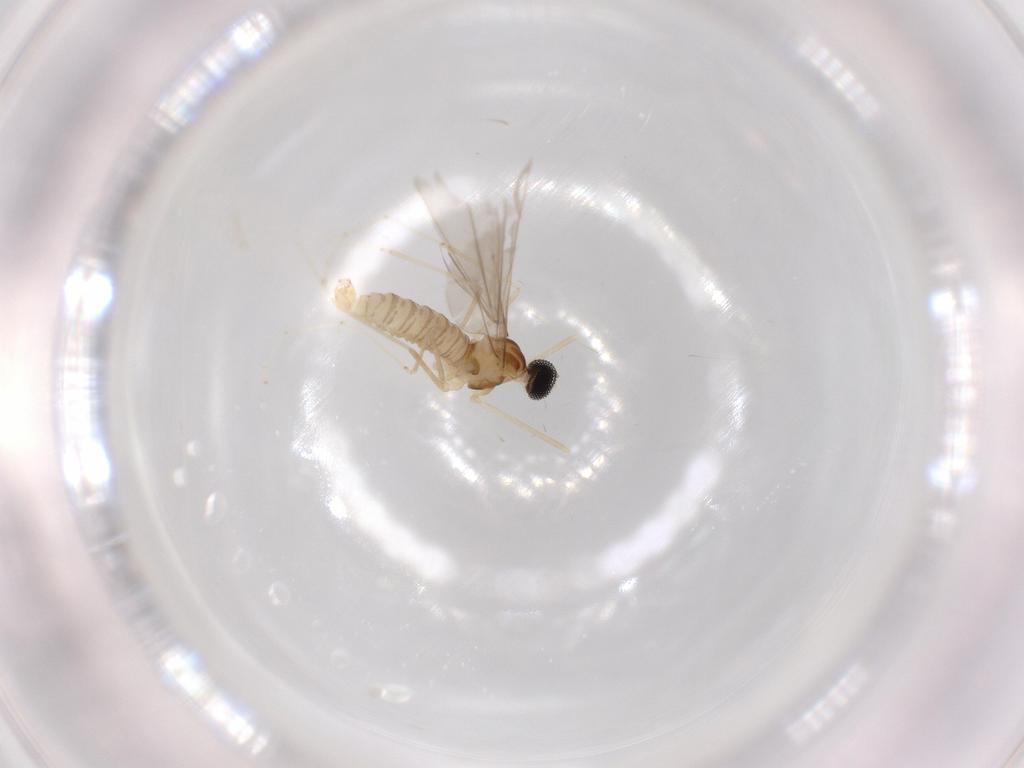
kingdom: Animalia
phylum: Arthropoda
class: Insecta
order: Diptera
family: Cecidomyiidae
